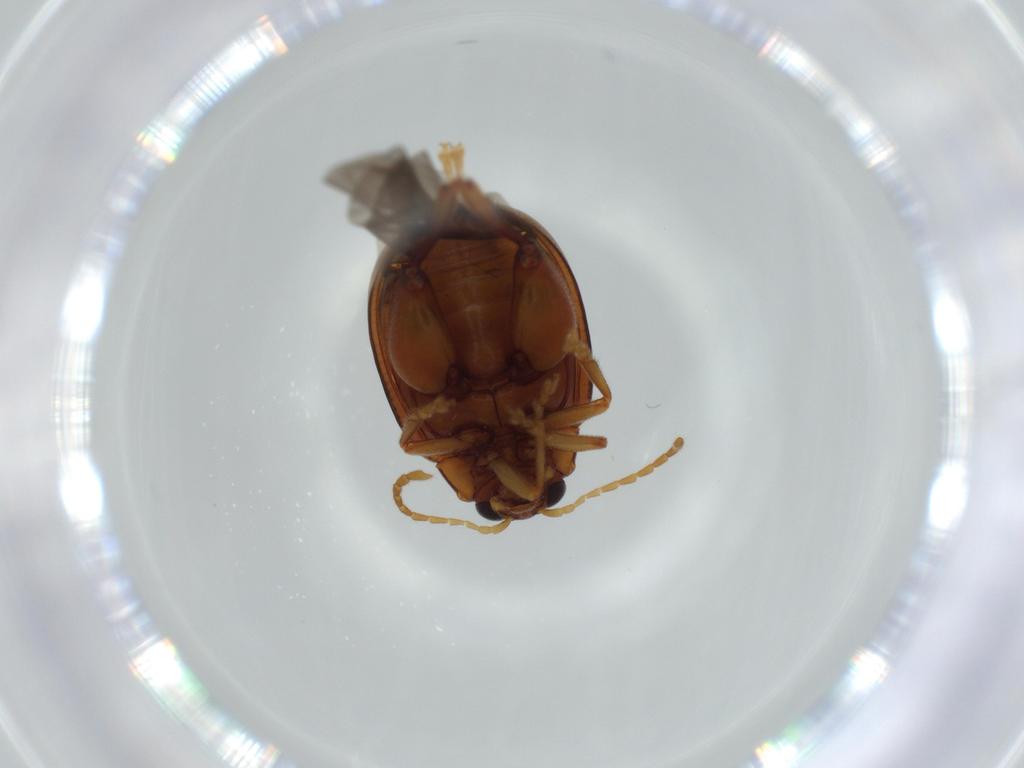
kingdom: Animalia
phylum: Arthropoda
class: Insecta
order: Coleoptera
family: Chrysomelidae
